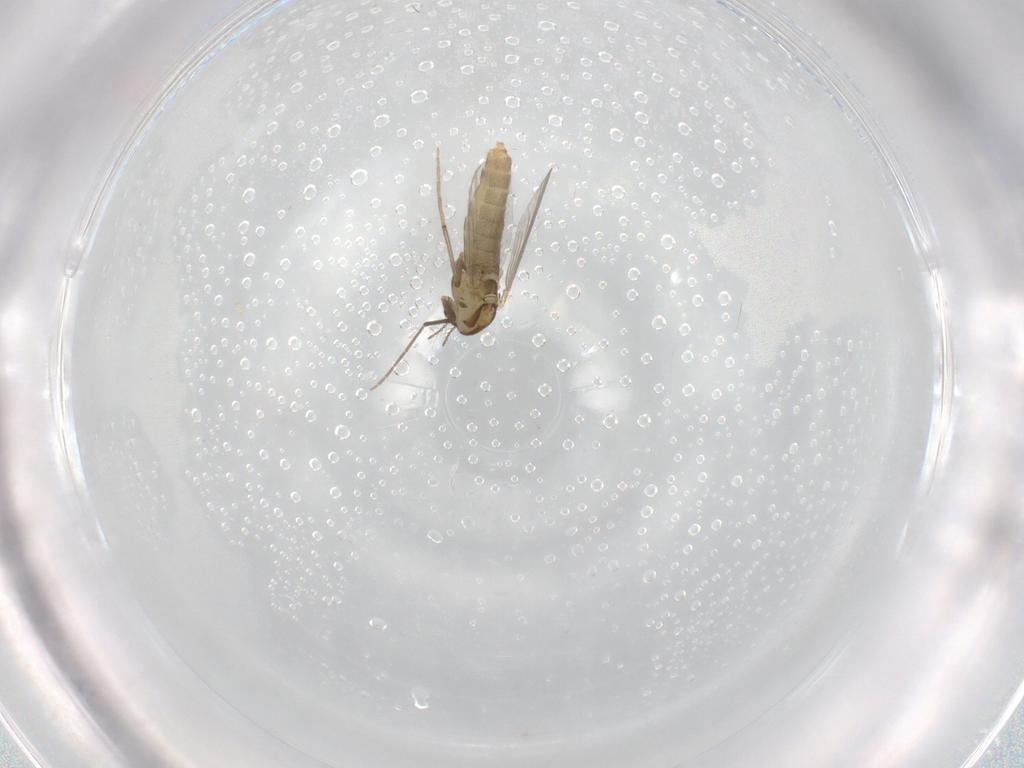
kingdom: Animalia
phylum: Arthropoda
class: Insecta
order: Diptera
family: Chironomidae
